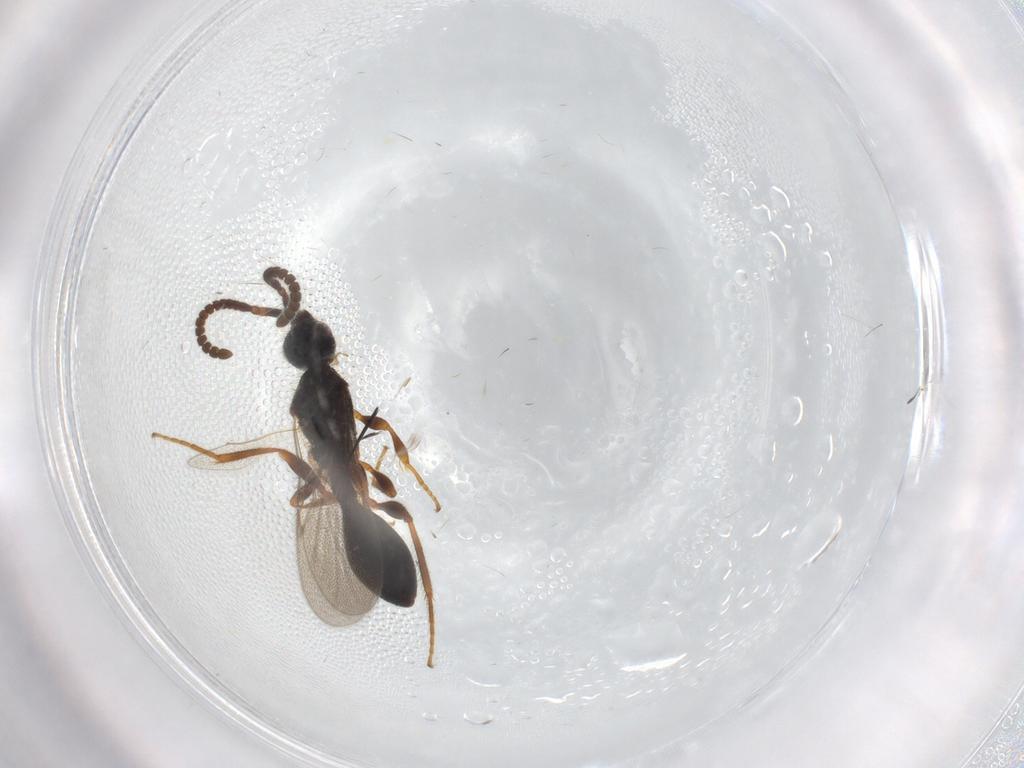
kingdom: Animalia
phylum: Arthropoda
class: Insecta
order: Hymenoptera
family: Diapriidae
